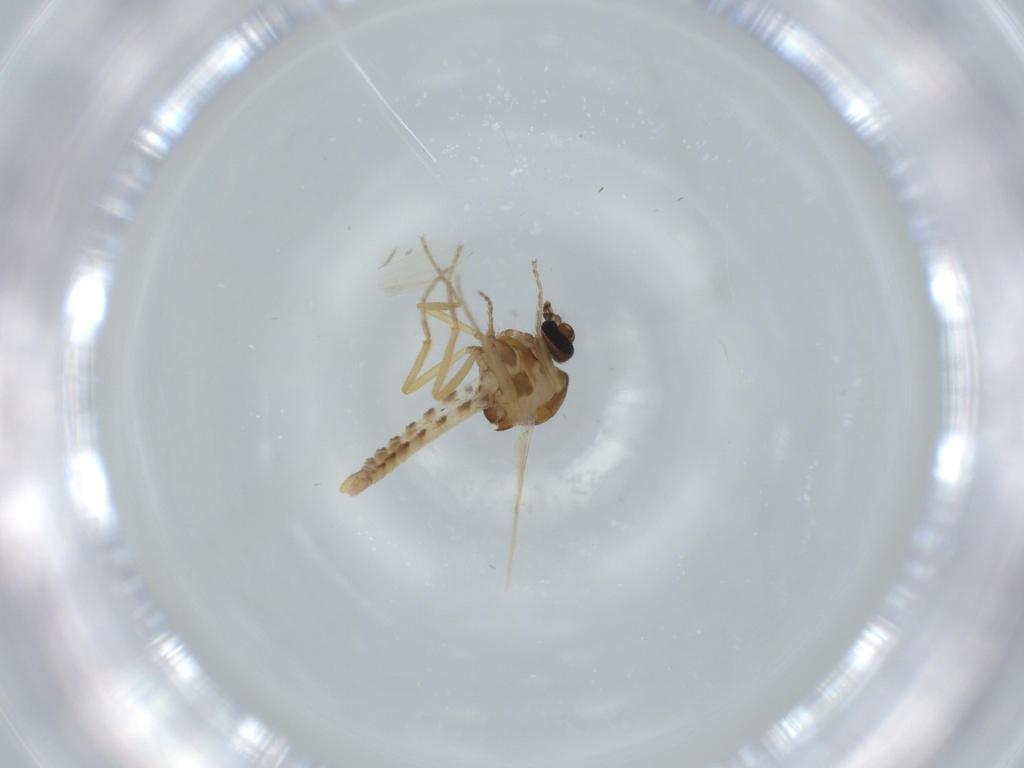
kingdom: Animalia
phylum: Arthropoda
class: Insecta
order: Diptera
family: Ceratopogonidae
